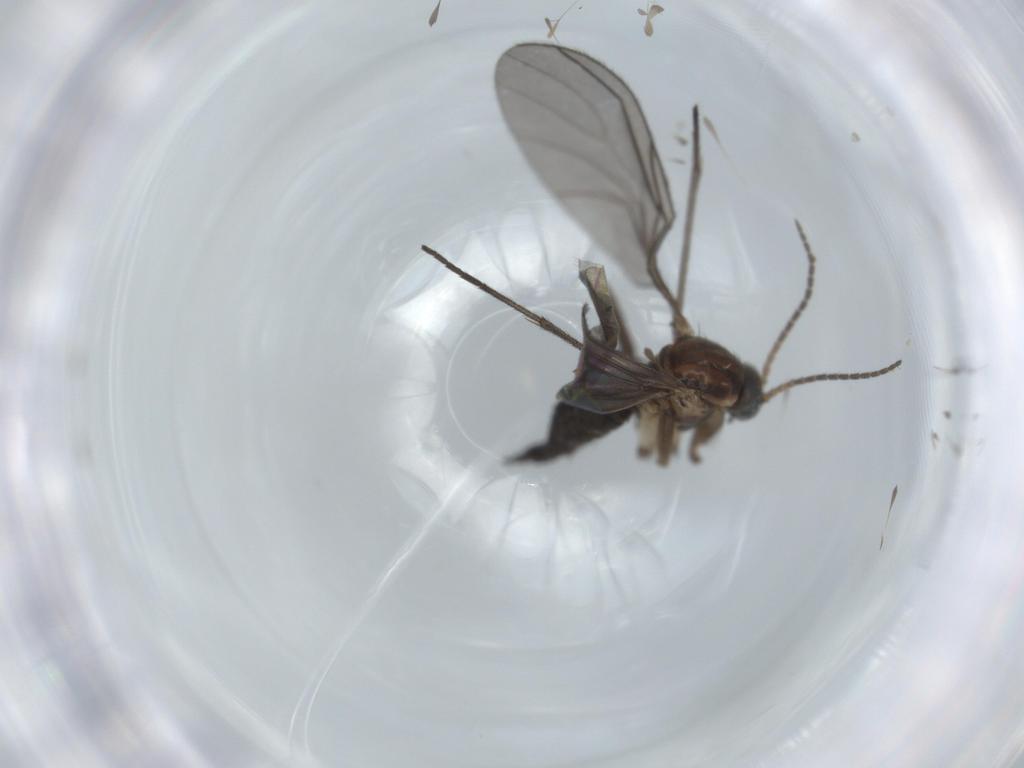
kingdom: Animalia
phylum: Arthropoda
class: Insecta
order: Diptera
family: Sciaridae
